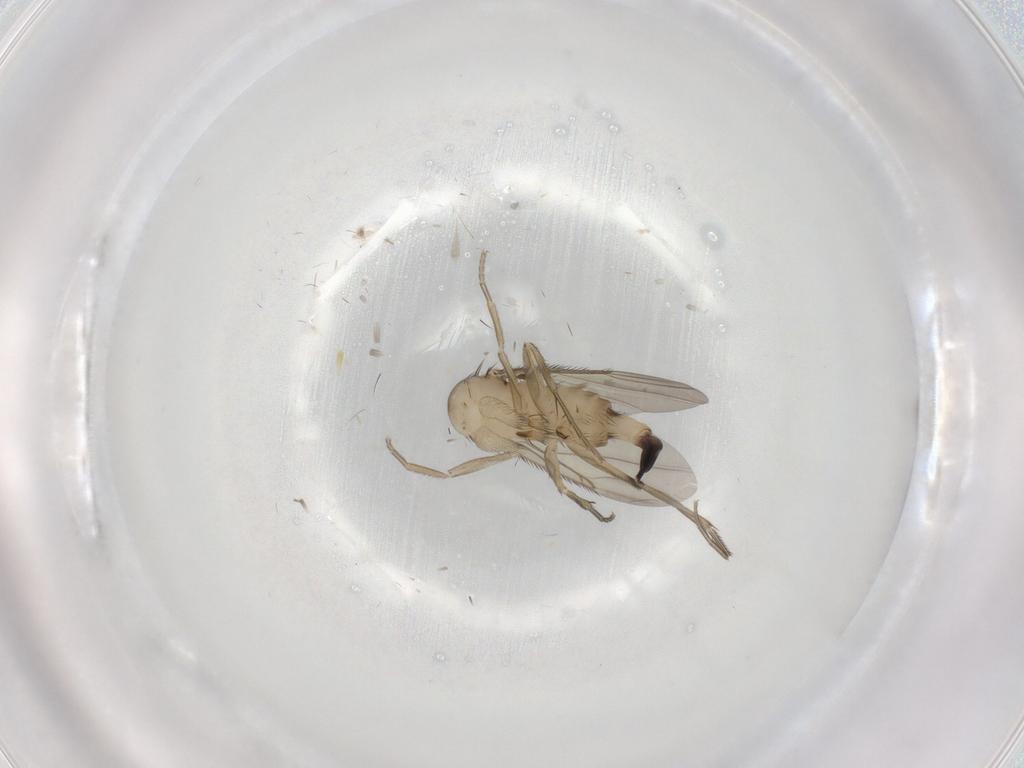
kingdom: Animalia
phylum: Arthropoda
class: Insecta
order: Diptera
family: Phoridae
